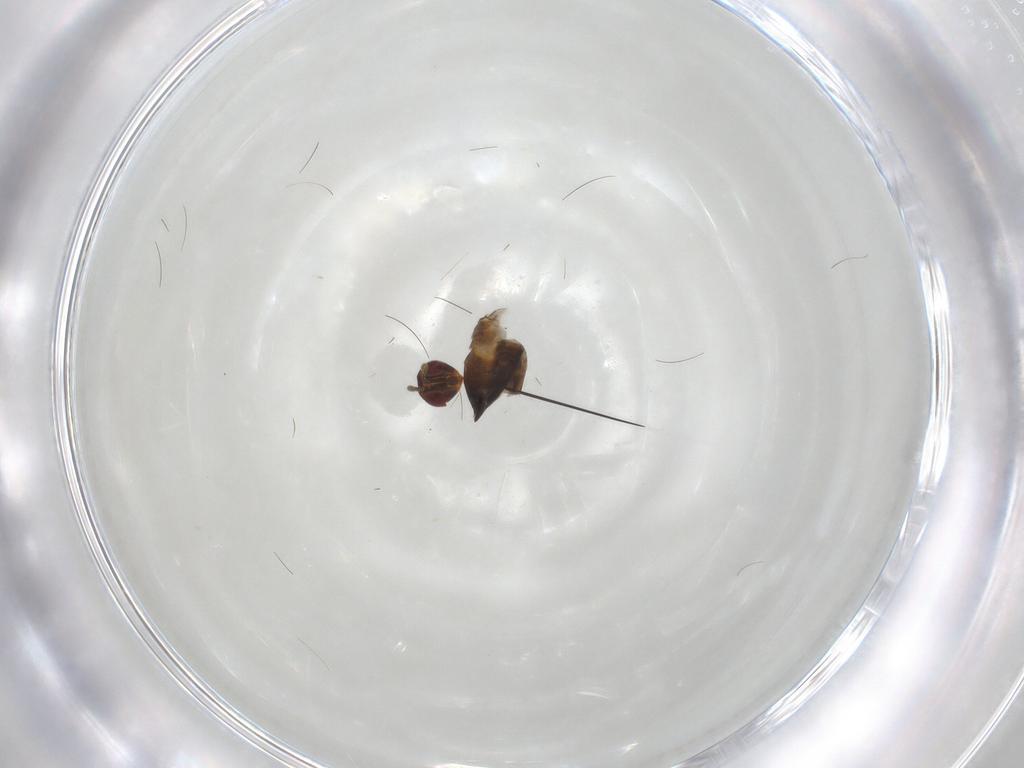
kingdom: Animalia
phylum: Arthropoda
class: Insecta
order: Hymenoptera
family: Eulophidae
